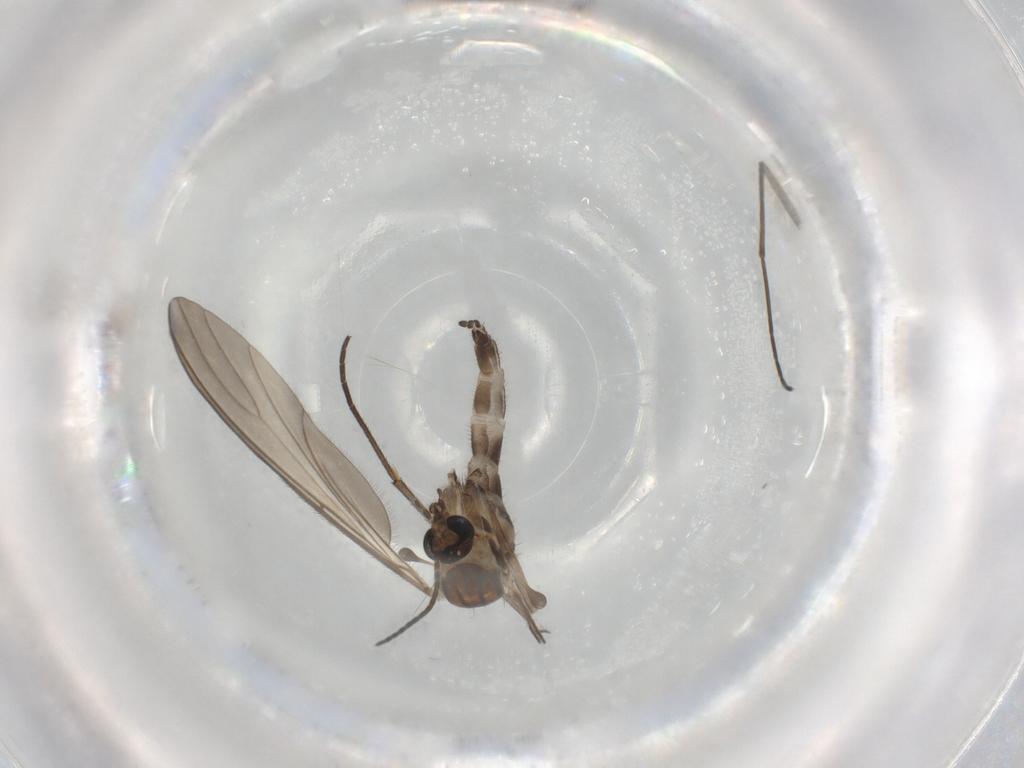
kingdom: Animalia
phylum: Arthropoda
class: Insecta
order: Diptera
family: Sciaridae
